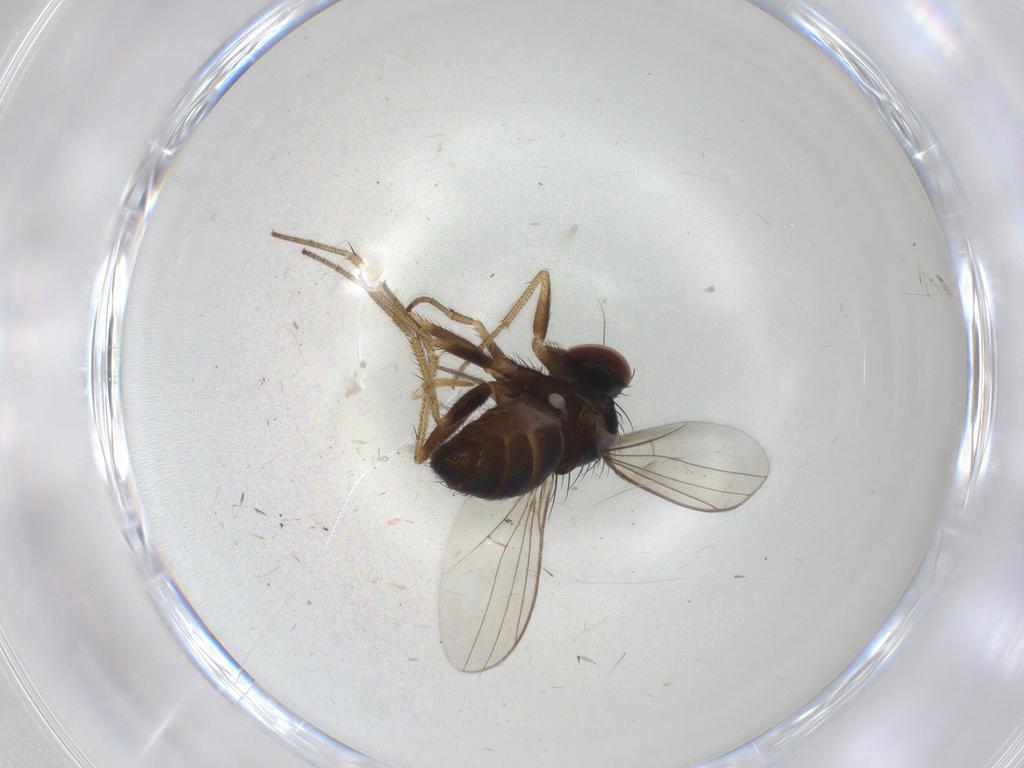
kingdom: Animalia
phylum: Arthropoda
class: Insecta
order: Diptera
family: Chironomidae
